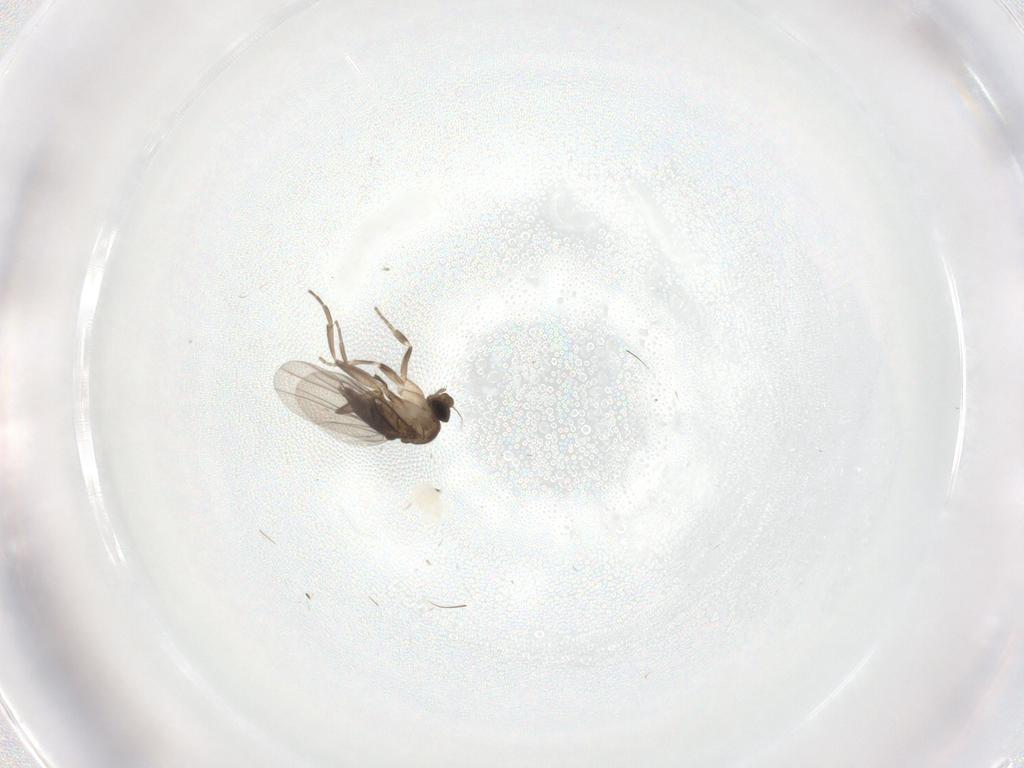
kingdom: Animalia
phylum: Arthropoda
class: Insecta
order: Diptera
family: Phoridae
